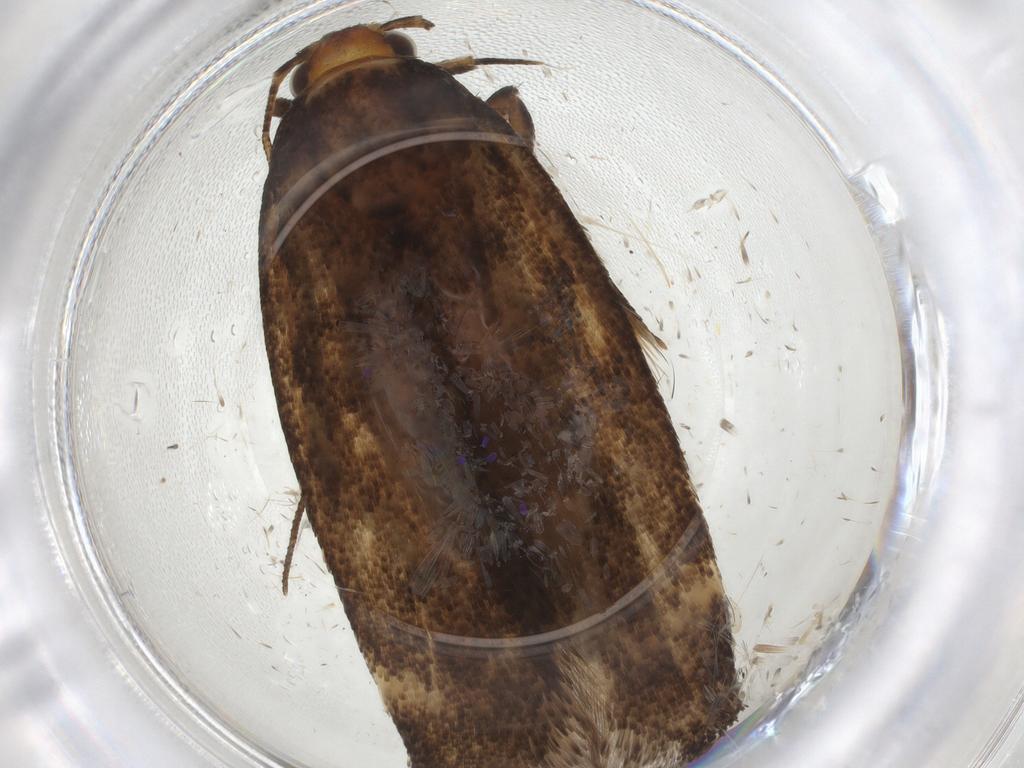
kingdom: Animalia
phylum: Arthropoda
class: Insecta
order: Lepidoptera
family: Gelechiidae
